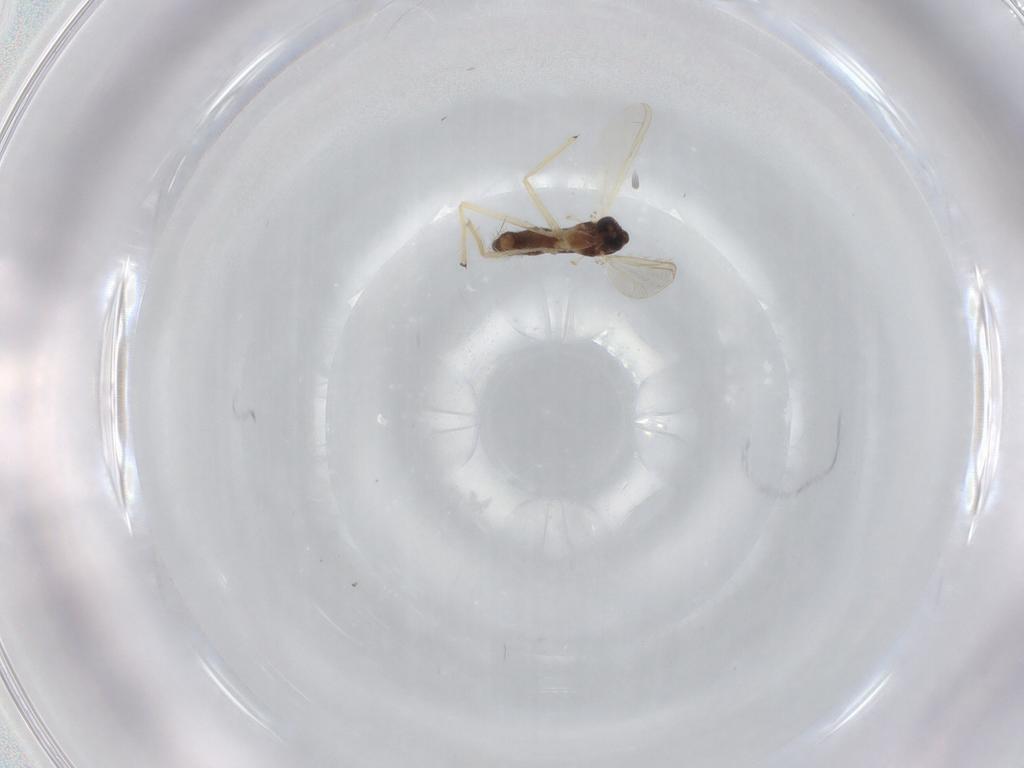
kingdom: Animalia
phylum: Arthropoda
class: Insecta
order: Diptera
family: Chironomidae
